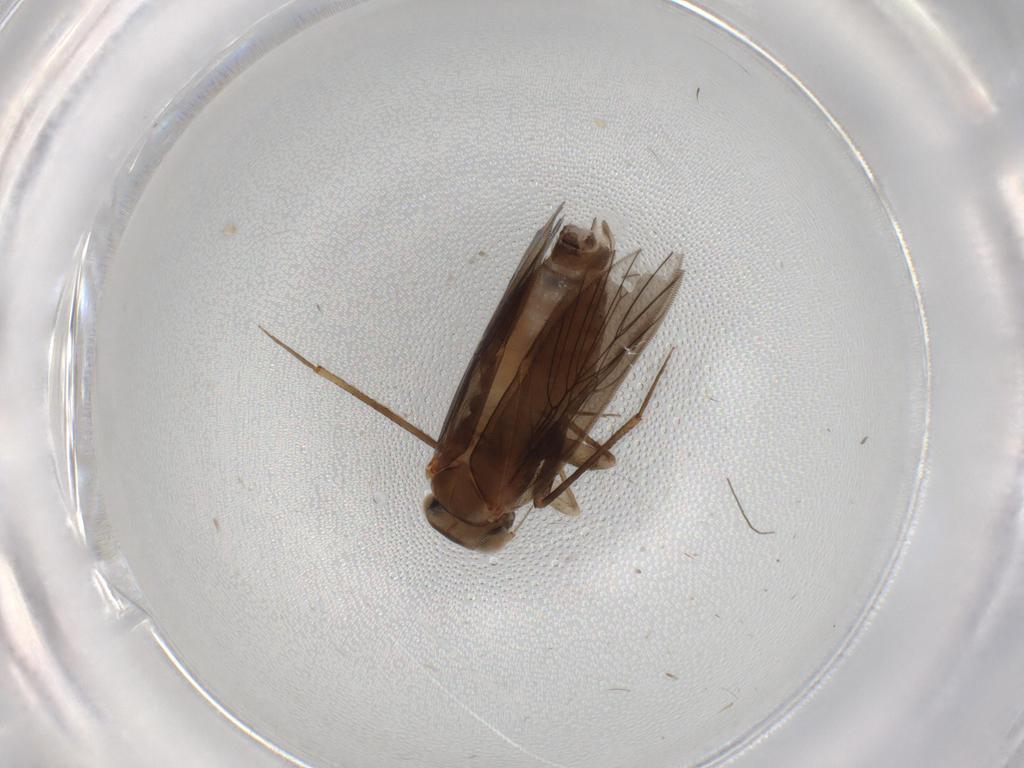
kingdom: Animalia
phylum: Arthropoda
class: Insecta
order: Psocodea
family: Lepidopsocidae
